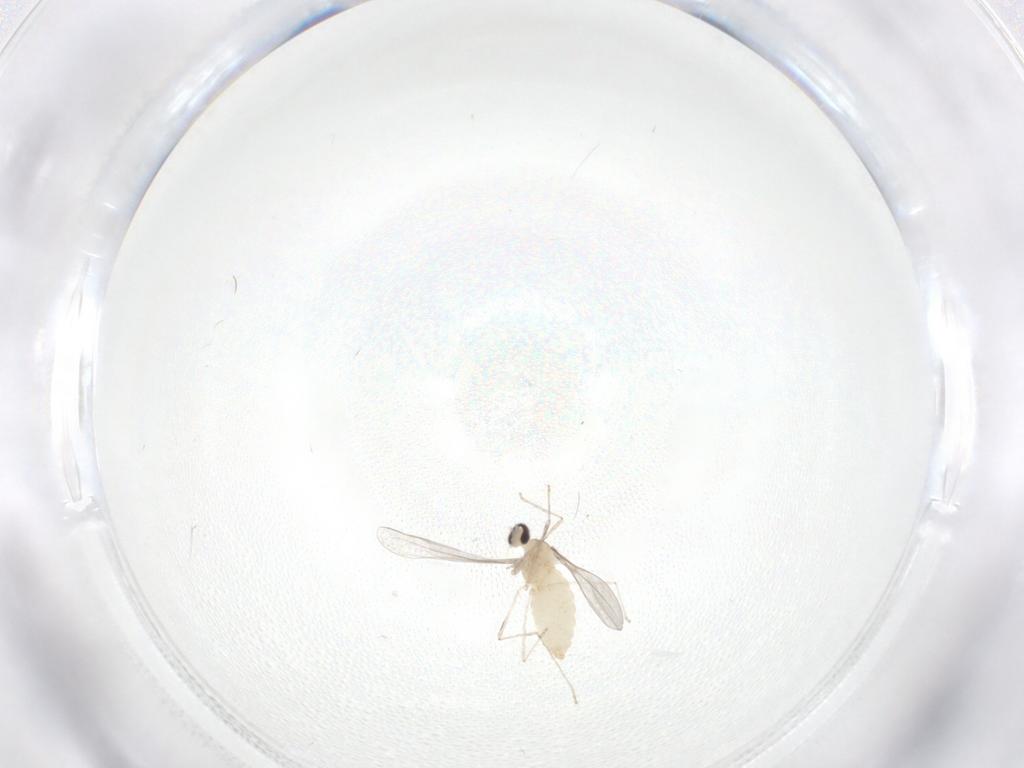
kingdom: Animalia
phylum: Arthropoda
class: Insecta
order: Diptera
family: Cecidomyiidae
